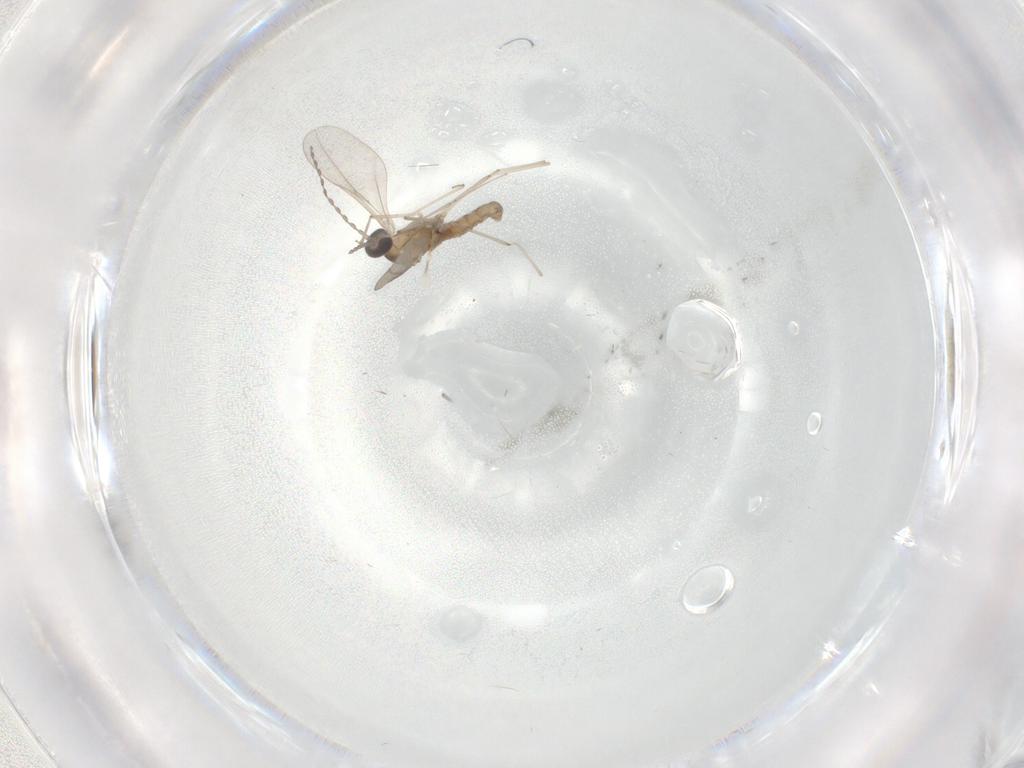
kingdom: Animalia
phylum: Arthropoda
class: Insecta
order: Diptera
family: Cecidomyiidae
